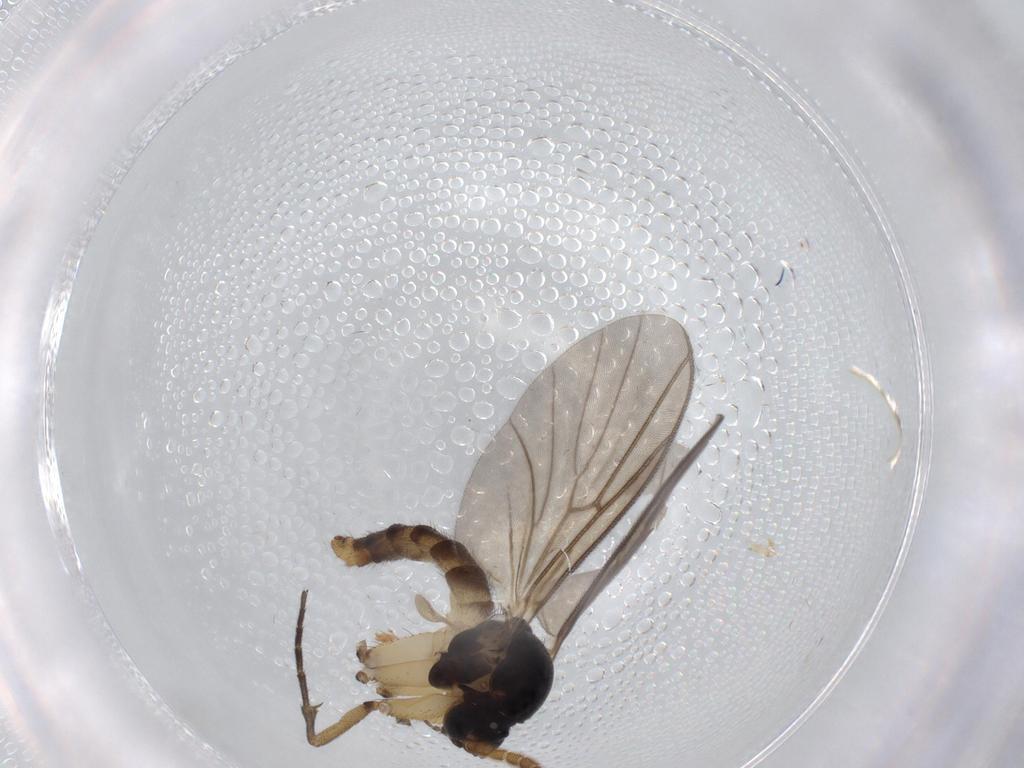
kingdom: Animalia
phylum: Arthropoda
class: Insecta
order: Diptera
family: Mycetophilidae
